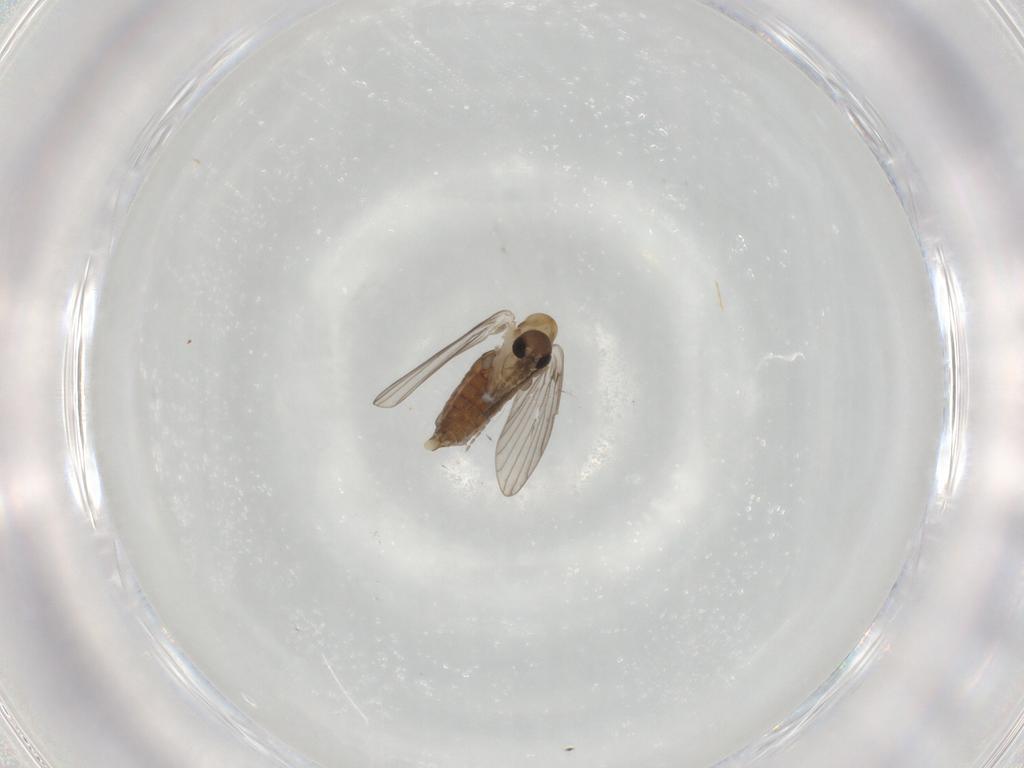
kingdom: Animalia
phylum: Arthropoda
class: Insecta
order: Diptera
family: Psychodidae
